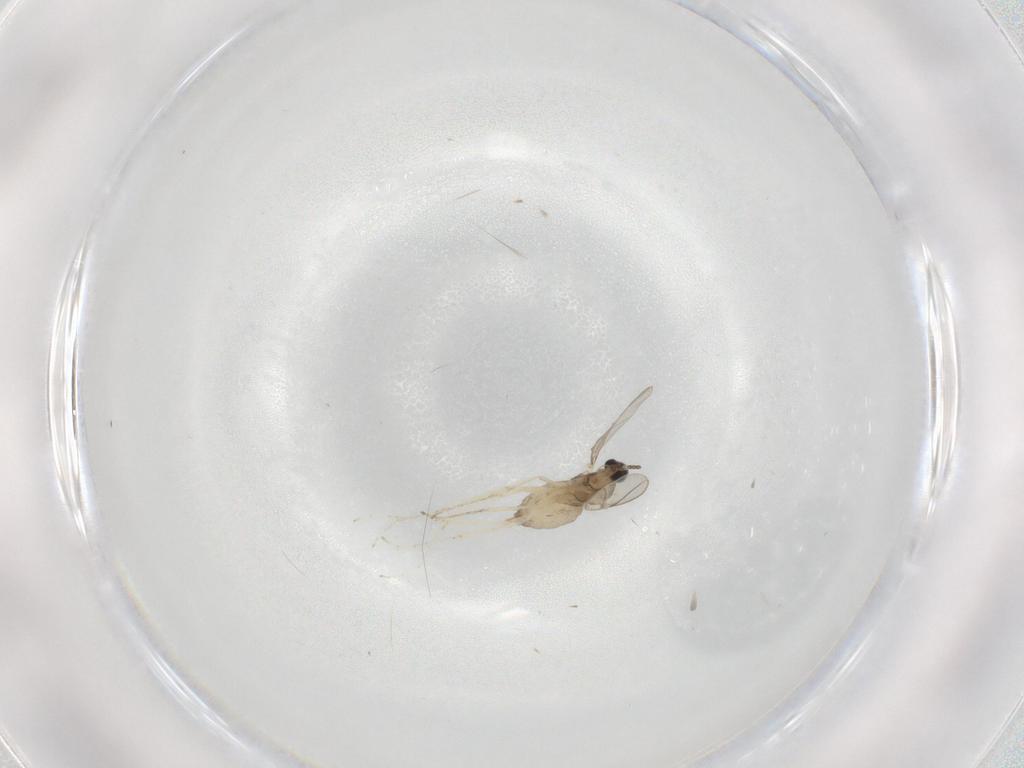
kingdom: Animalia
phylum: Arthropoda
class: Insecta
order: Diptera
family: Cecidomyiidae
